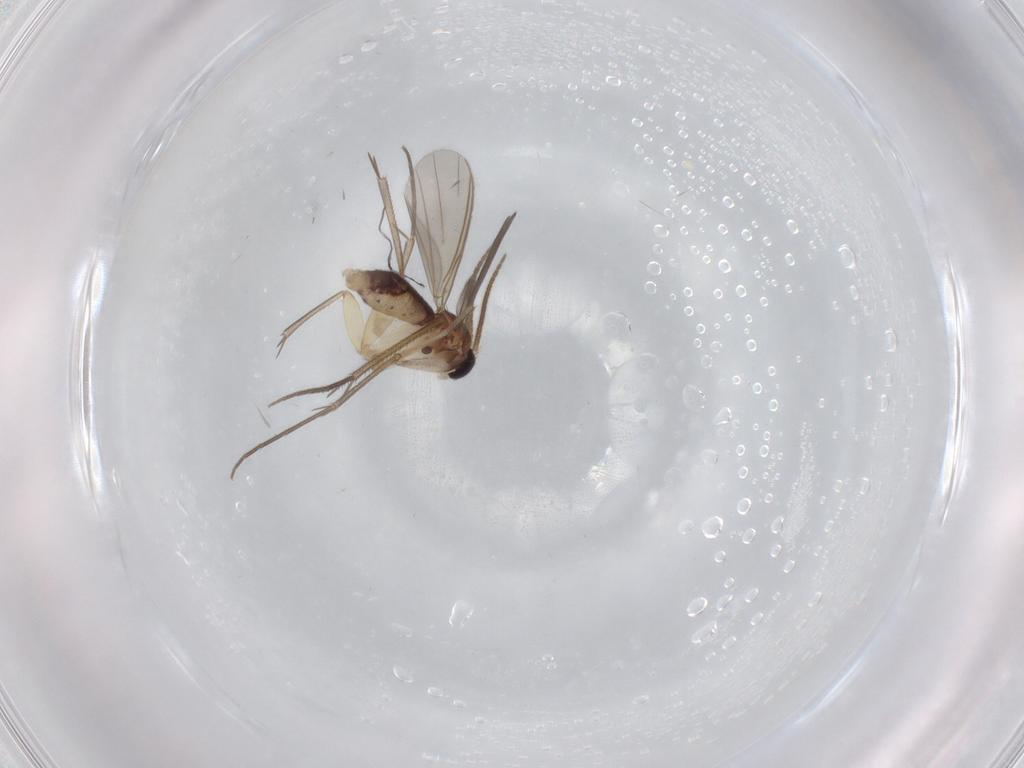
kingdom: Animalia
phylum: Arthropoda
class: Insecta
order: Diptera
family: Mycetophilidae
